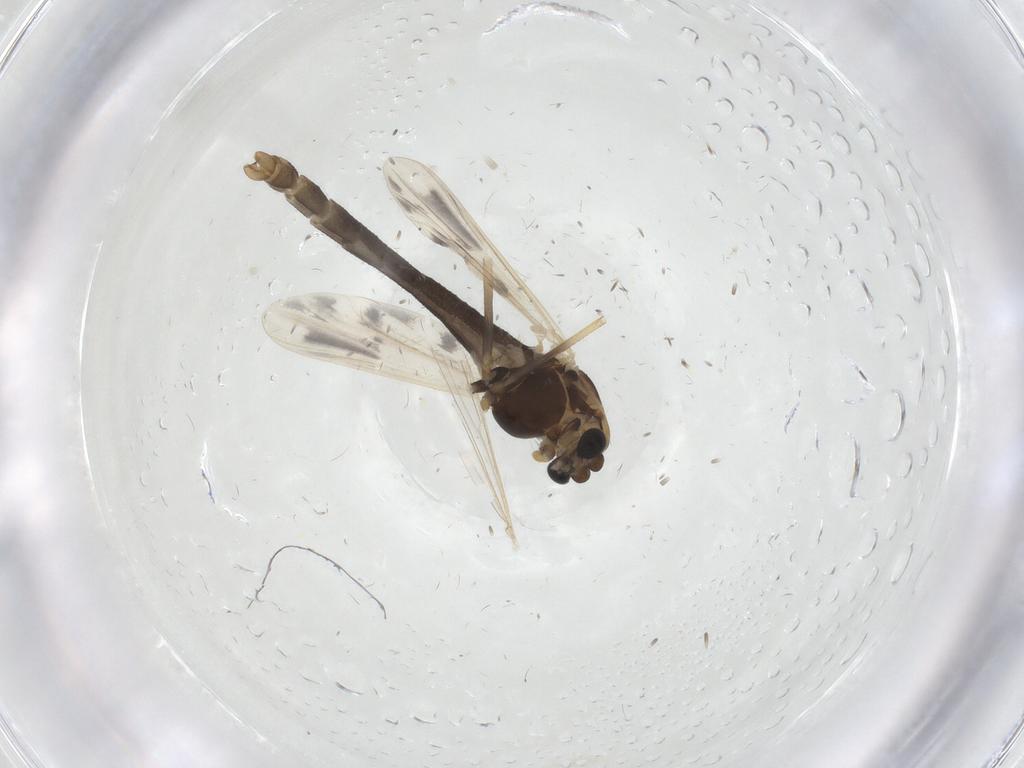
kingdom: Animalia
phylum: Arthropoda
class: Insecta
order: Diptera
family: Chironomidae
